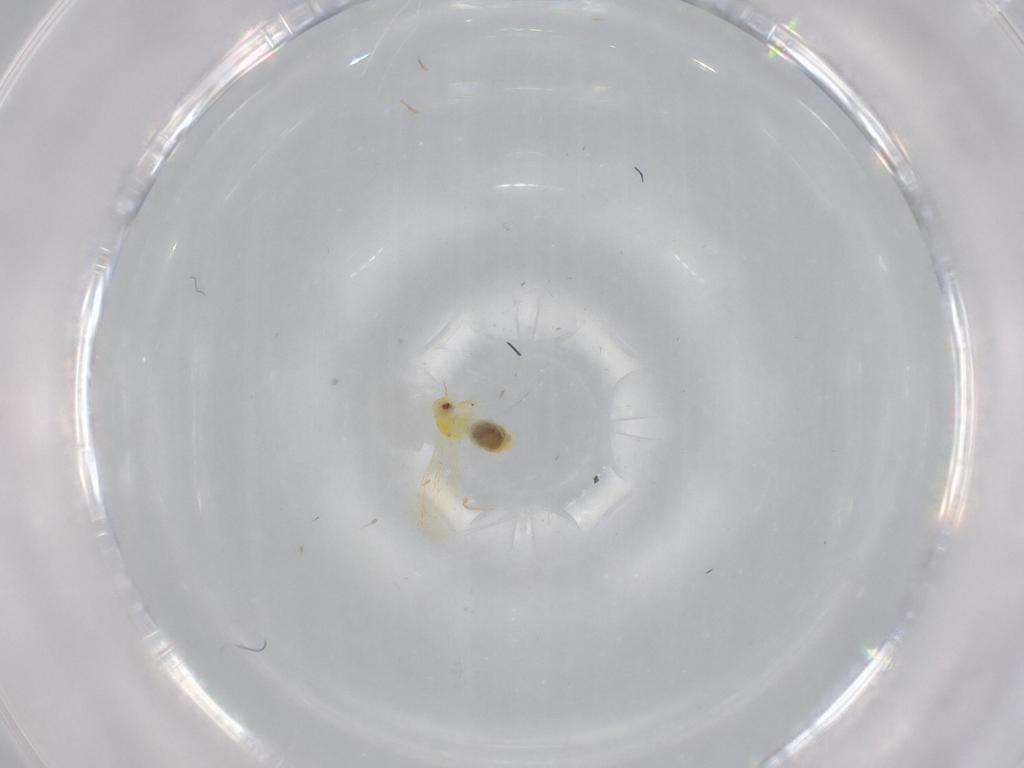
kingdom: Animalia
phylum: Arthropoda
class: Insecta
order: Hemiptera
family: Aleyrodidae
